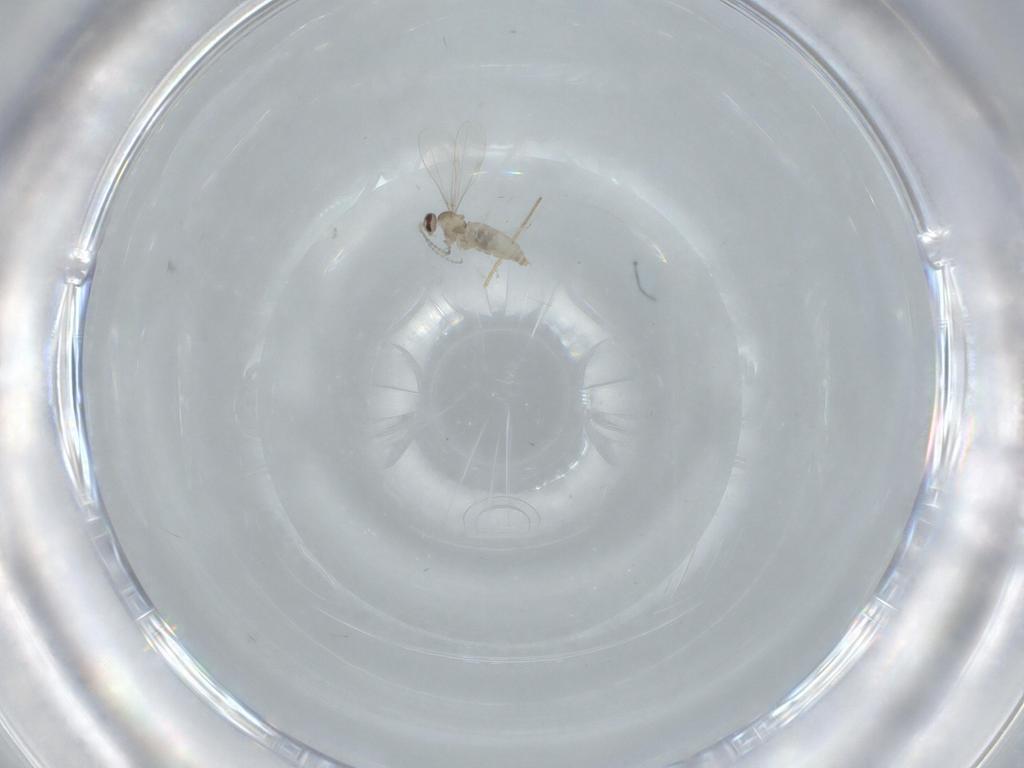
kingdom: Animalia
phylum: Arthropoda
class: Insecta
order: Diptera
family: Cecidomyiidae
